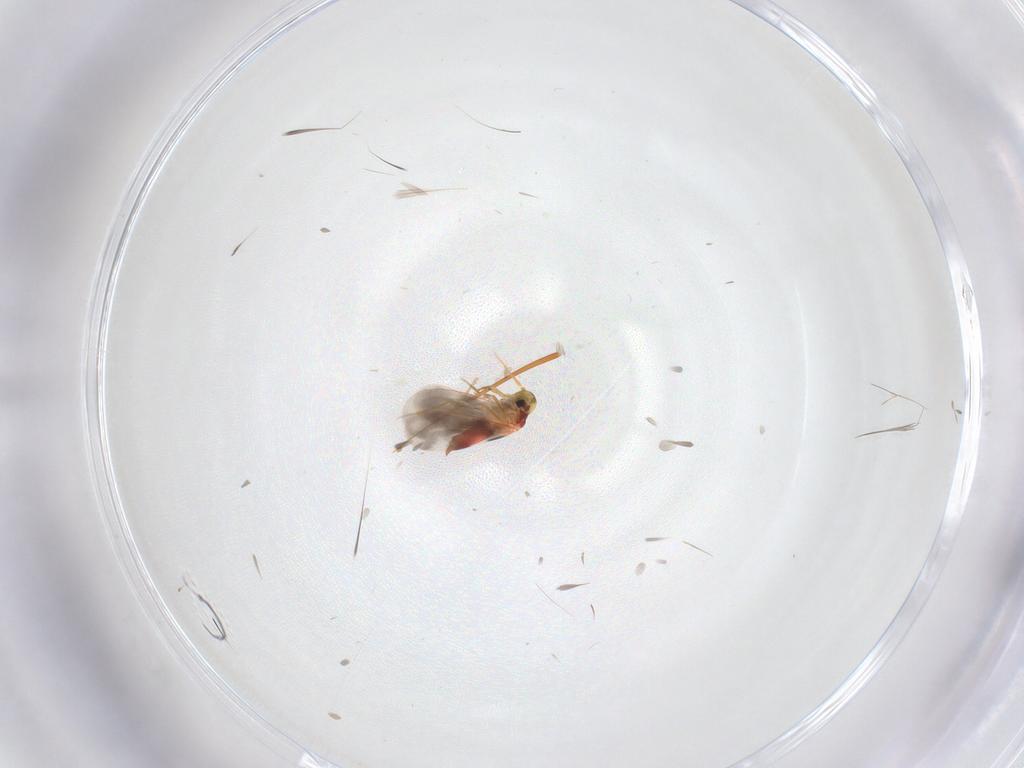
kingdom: Animalia
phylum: Arthropoda
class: Insecta
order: Hemiptera
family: Aleyrodidae
